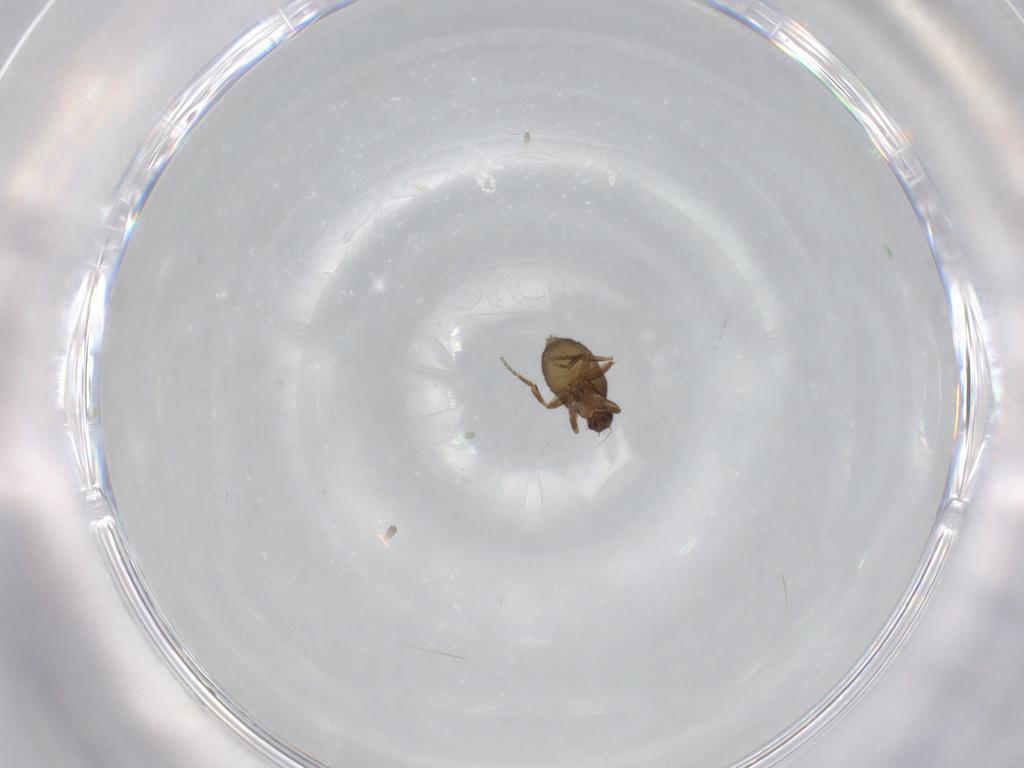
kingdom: Animalia
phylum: Arthropoda
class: Insecta
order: Diptera
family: Phoridae
